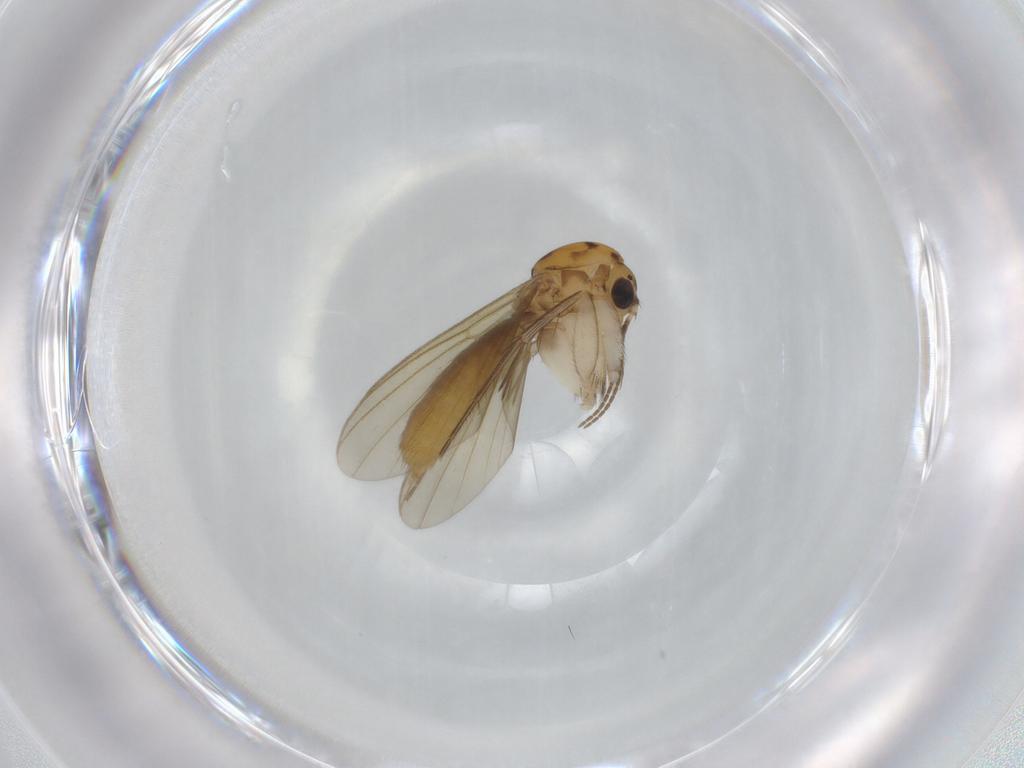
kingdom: Animalia
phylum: Arthropoda
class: Insecta
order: Diptera
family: Mycetophilidae
